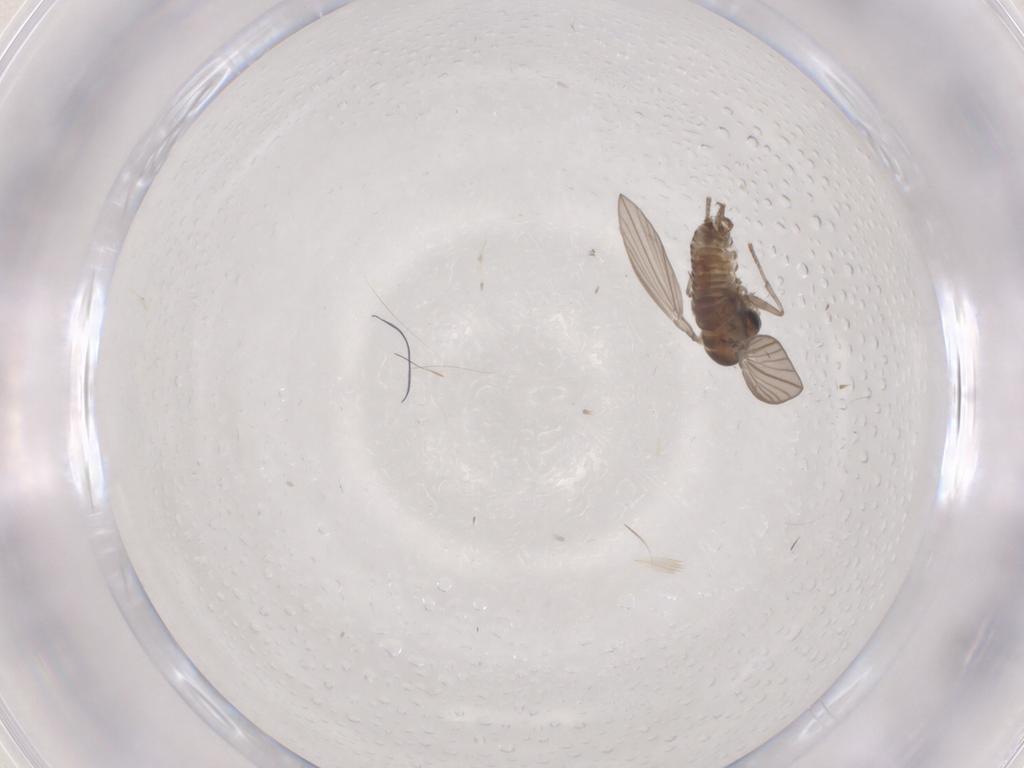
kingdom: Animalia
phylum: Arthropoda
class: Insecta
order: Diptera
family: Psychodidae
